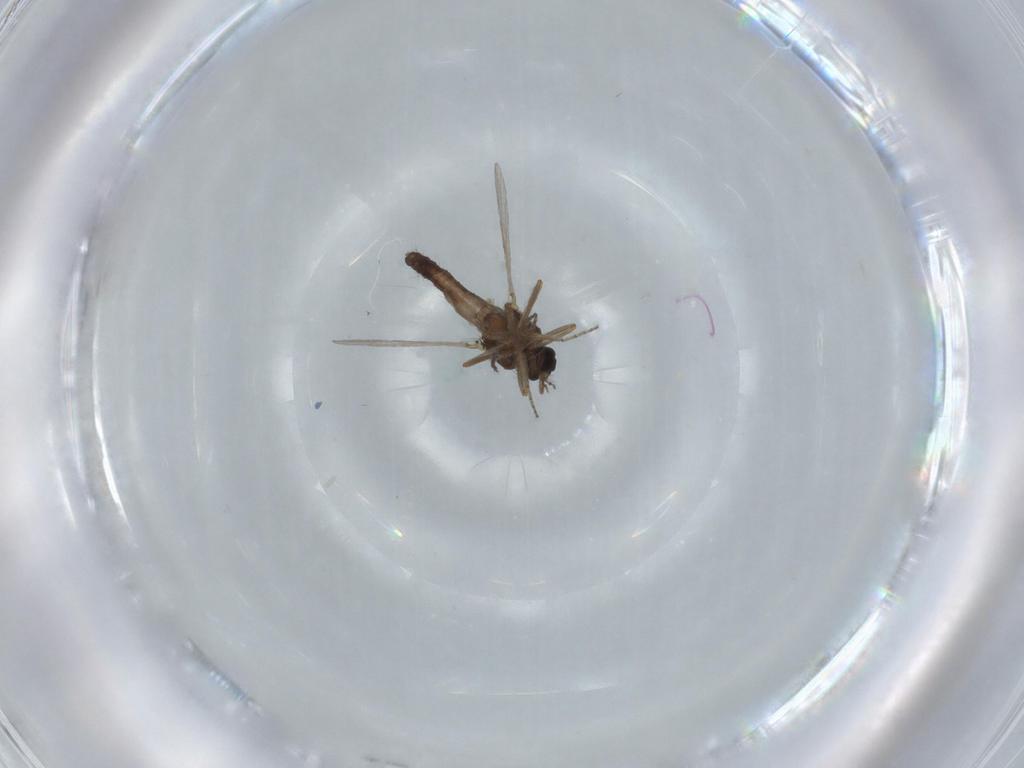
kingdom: Animalia
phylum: Arthropoda
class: Insecta
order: Diptera
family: Ceratopogonidae
